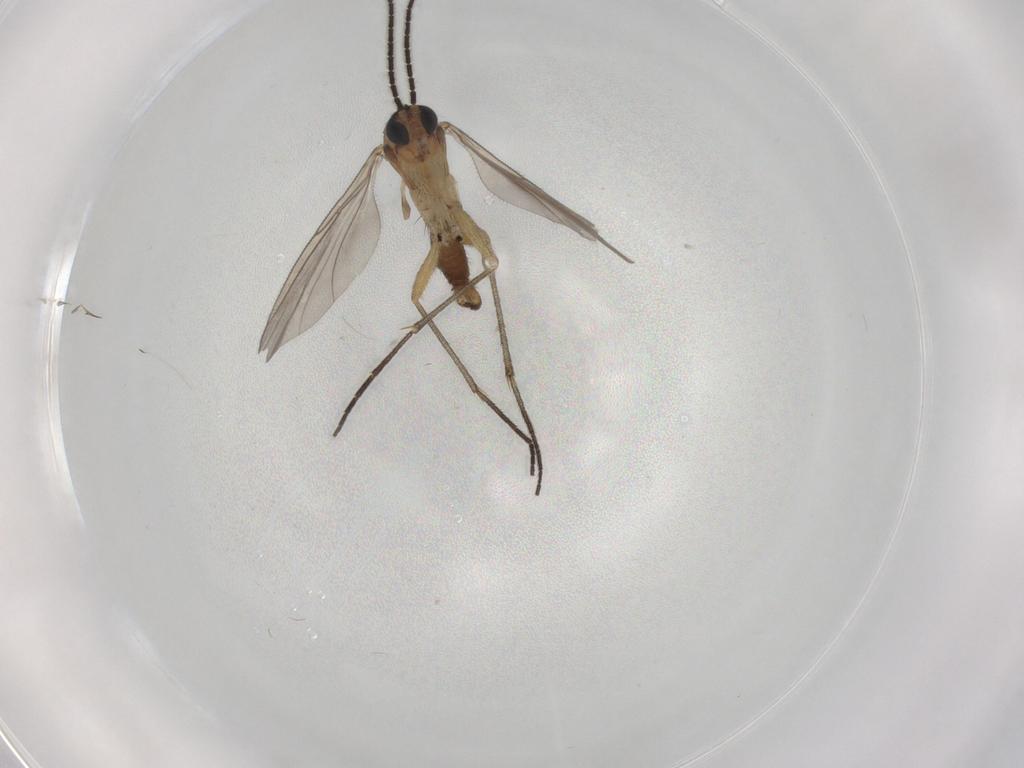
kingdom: Animalia
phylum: Arthropoda
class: Insecta
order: Diptera
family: Sciaridae
